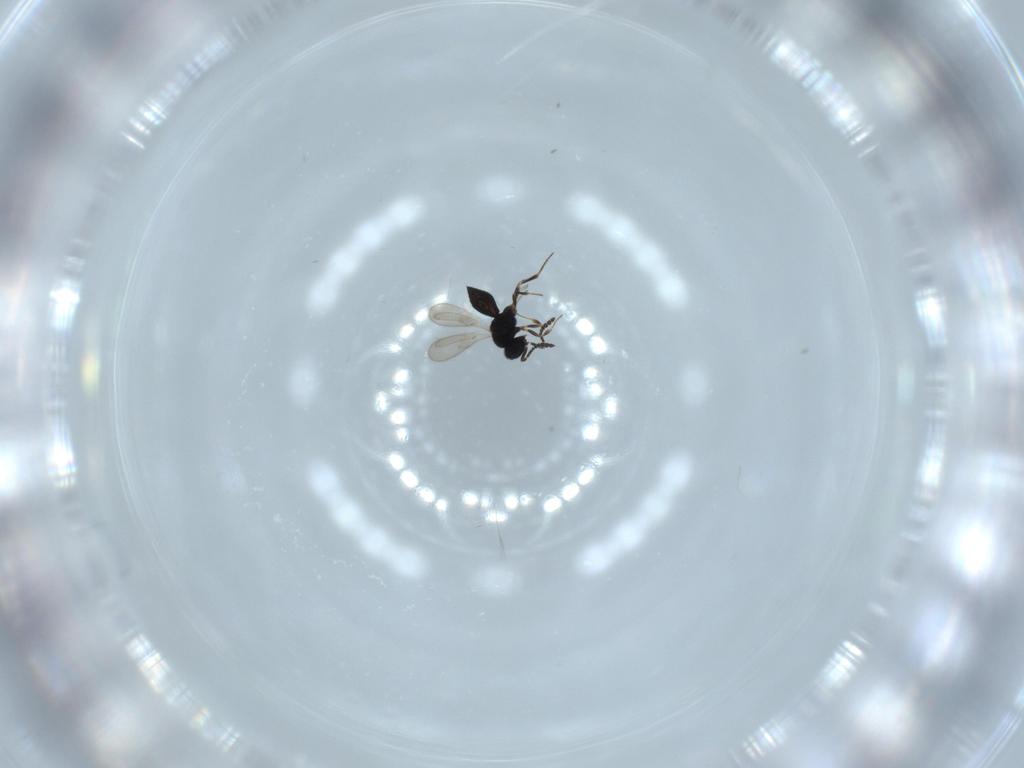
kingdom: Animalia
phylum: Arthropoda
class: Insecta
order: Hymenoptera
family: Scelionidae
